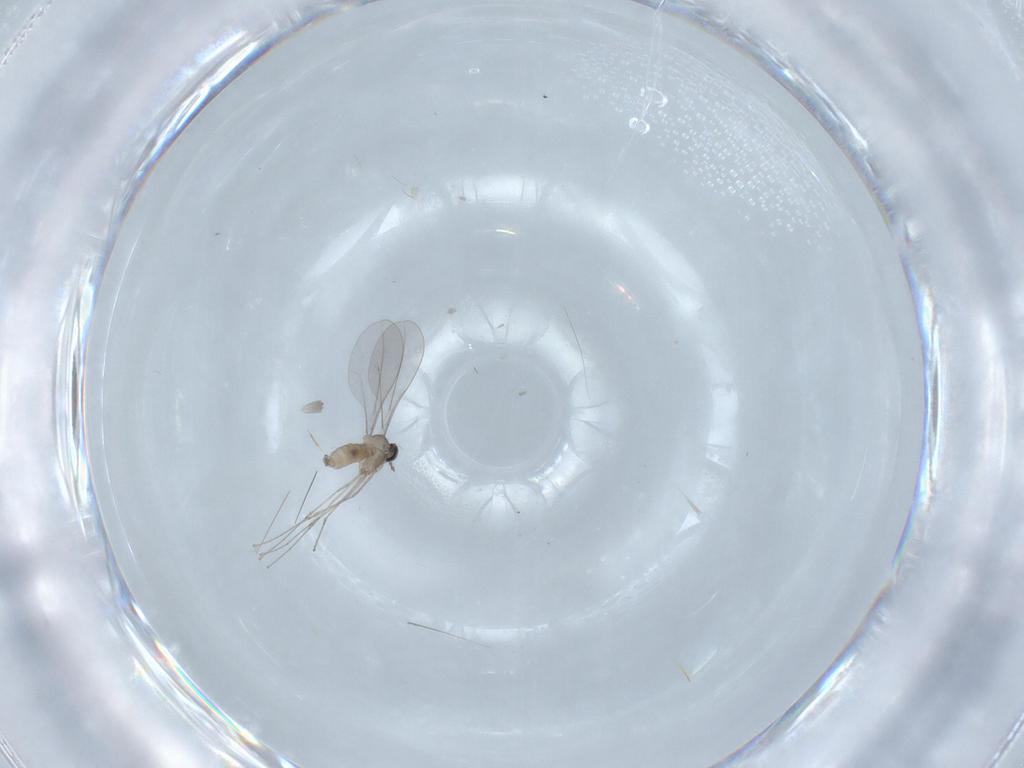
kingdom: Animalia
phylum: Arthropoda
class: Insecta
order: Diptera
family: Cecidomyiidae
